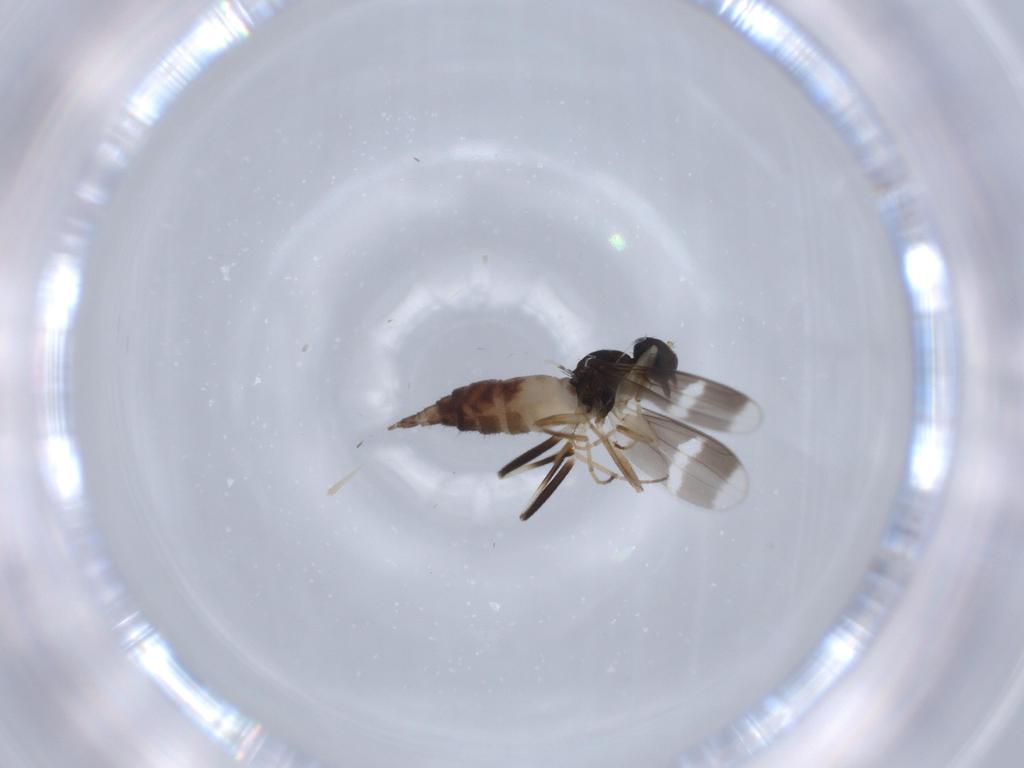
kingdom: Animalia
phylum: Arthropoda
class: Insecta
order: Diptera
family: Hybotidae
